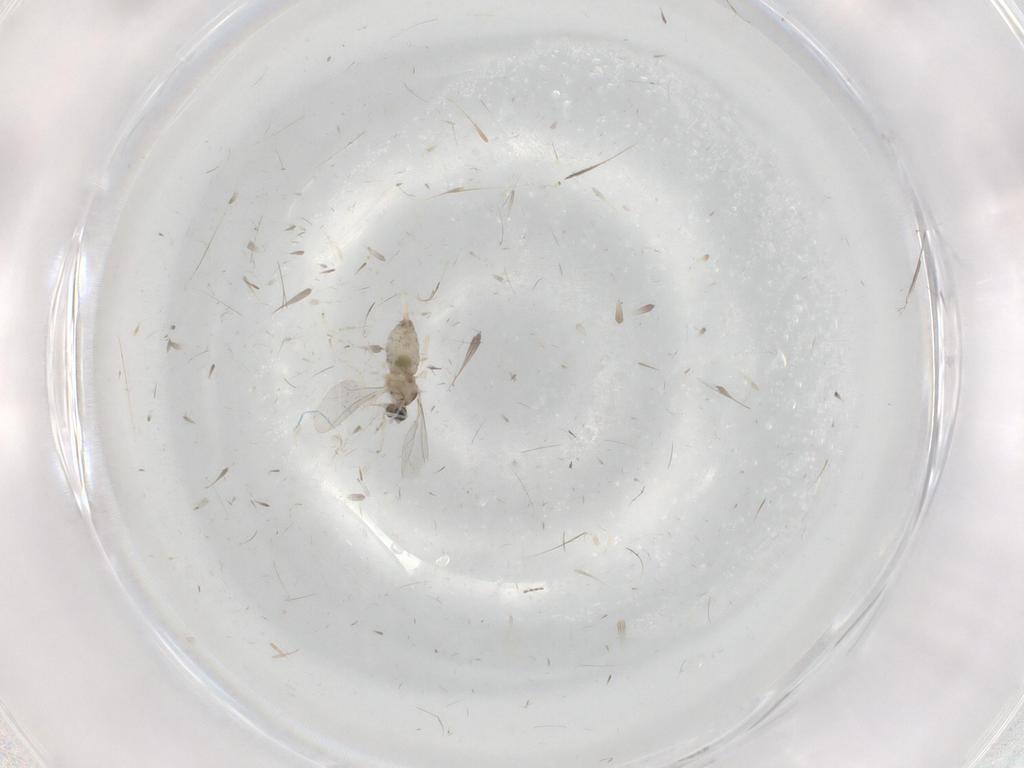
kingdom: Animalia
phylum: Arthropoda
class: Insecta
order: Diptera
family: Cecidomyiidae
